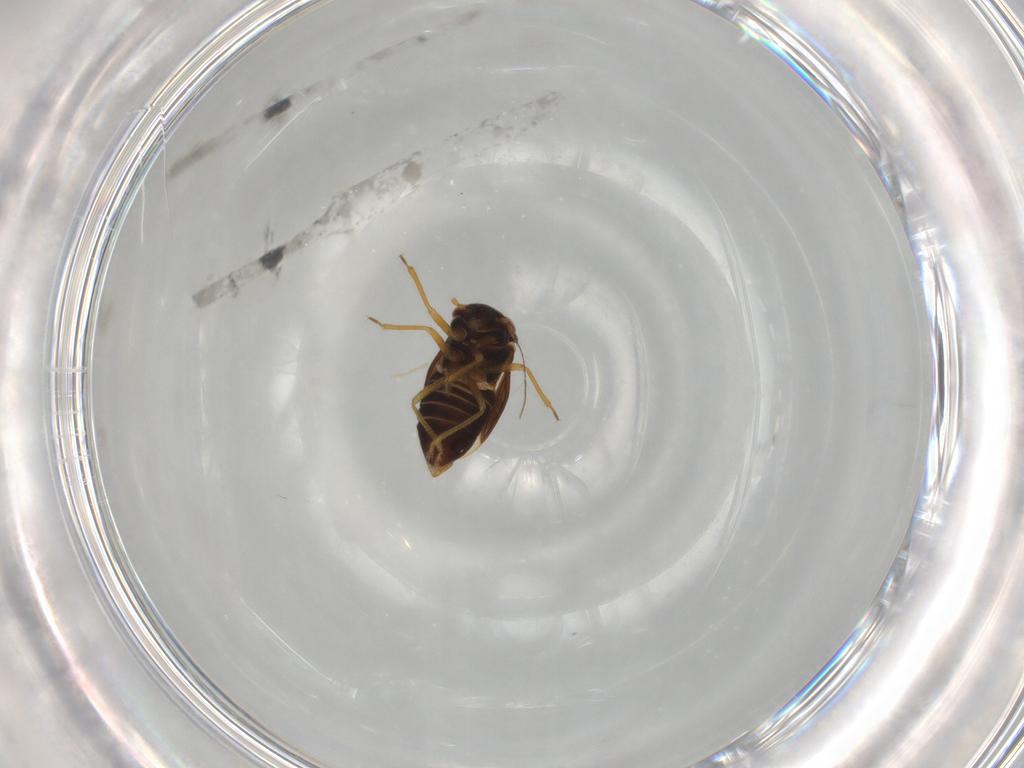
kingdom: Animalia
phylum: Arthropoda
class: Insecta
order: Hemiptera
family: Schizopteridae
